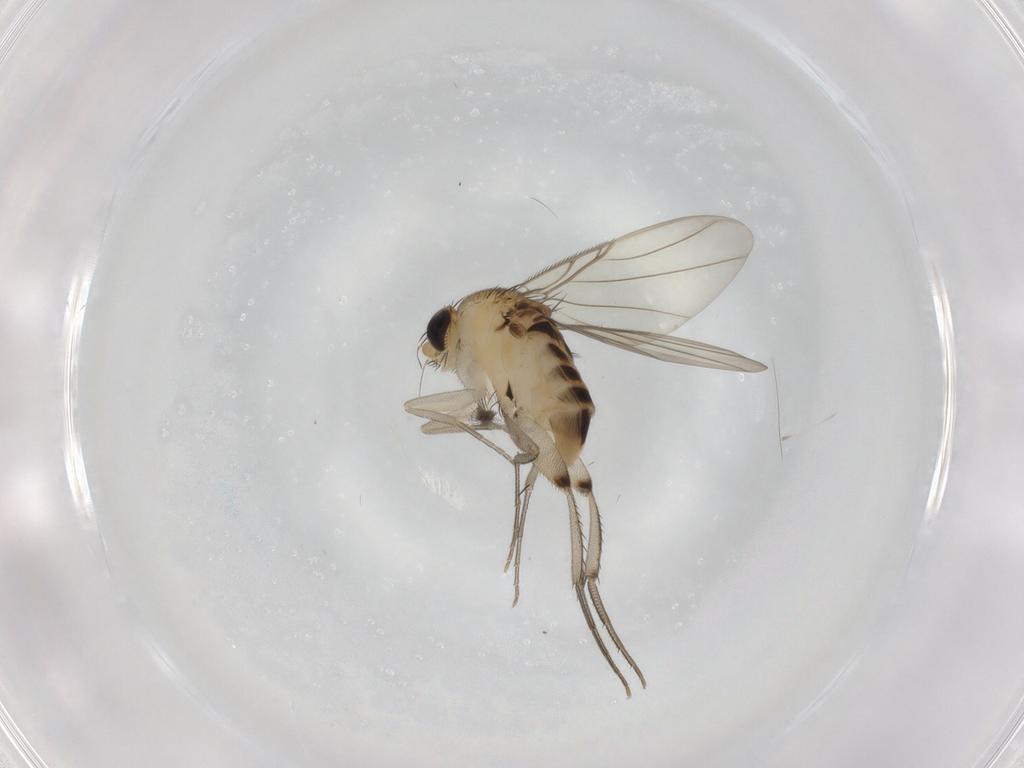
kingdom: Animalia
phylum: Arthropoda
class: Insecta
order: Diptera
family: Phoridae
